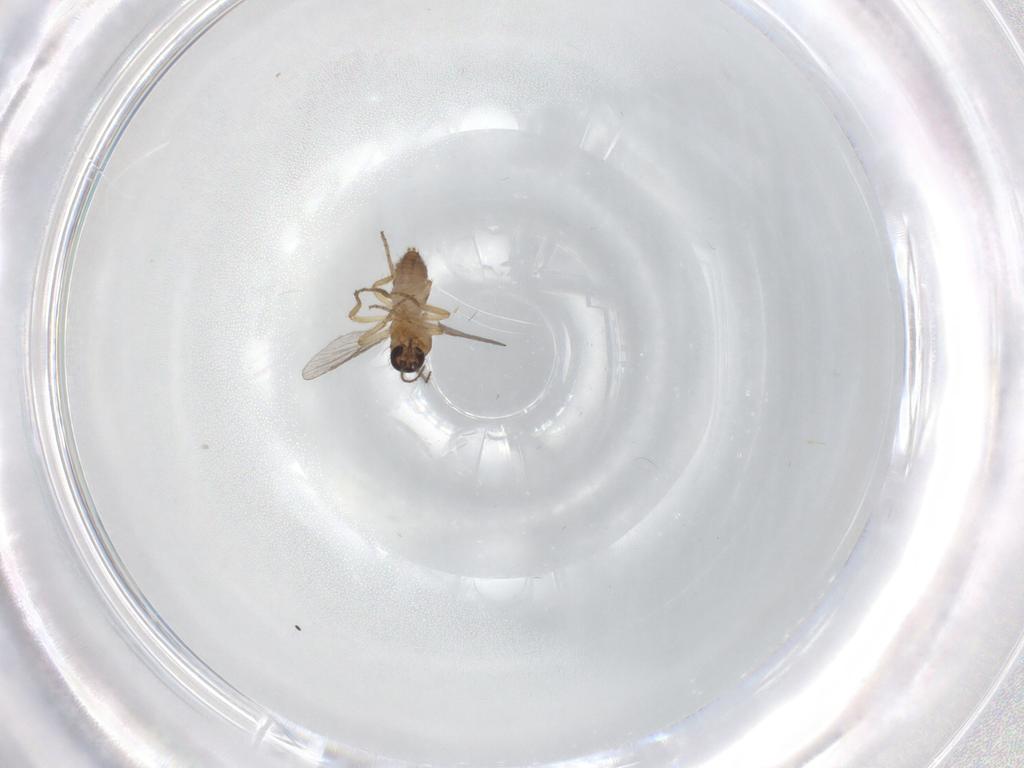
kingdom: Animalia
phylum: Arthropoda
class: Insecta
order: Diptera
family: Ceratopogonidae
